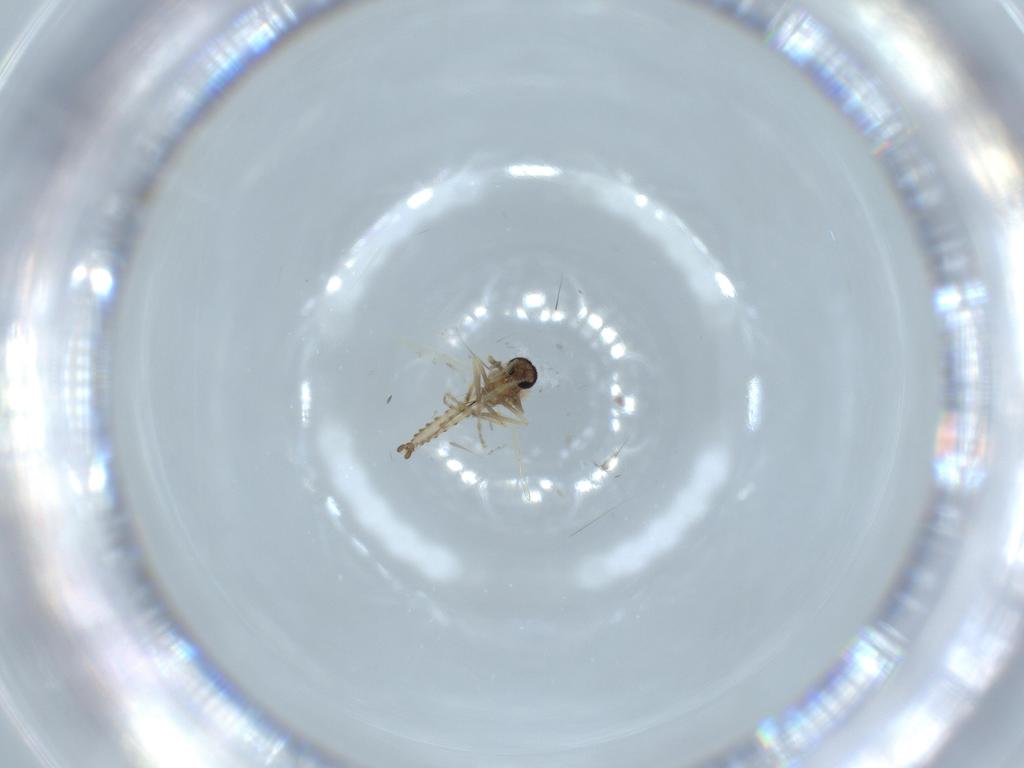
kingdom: Animalia
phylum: Arthropoda
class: Insecta
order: Diptera
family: Ceratopogonidae
